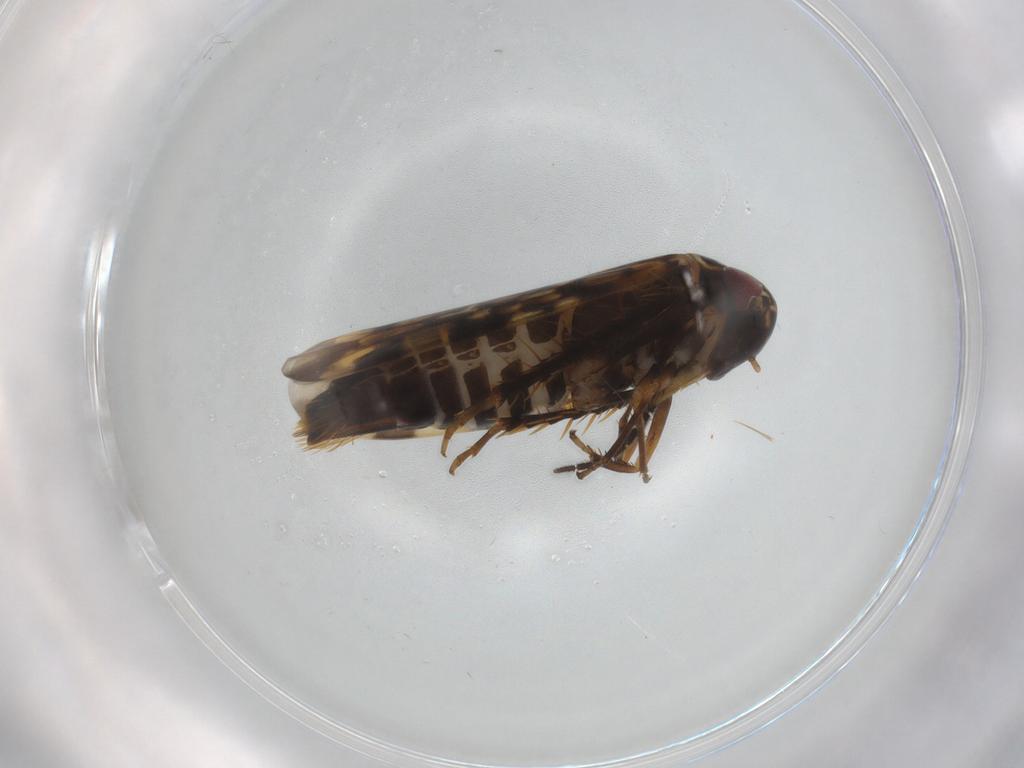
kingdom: Animalia
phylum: Arthropoda
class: Insecta
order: Hemiptera
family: Cicadellidae
